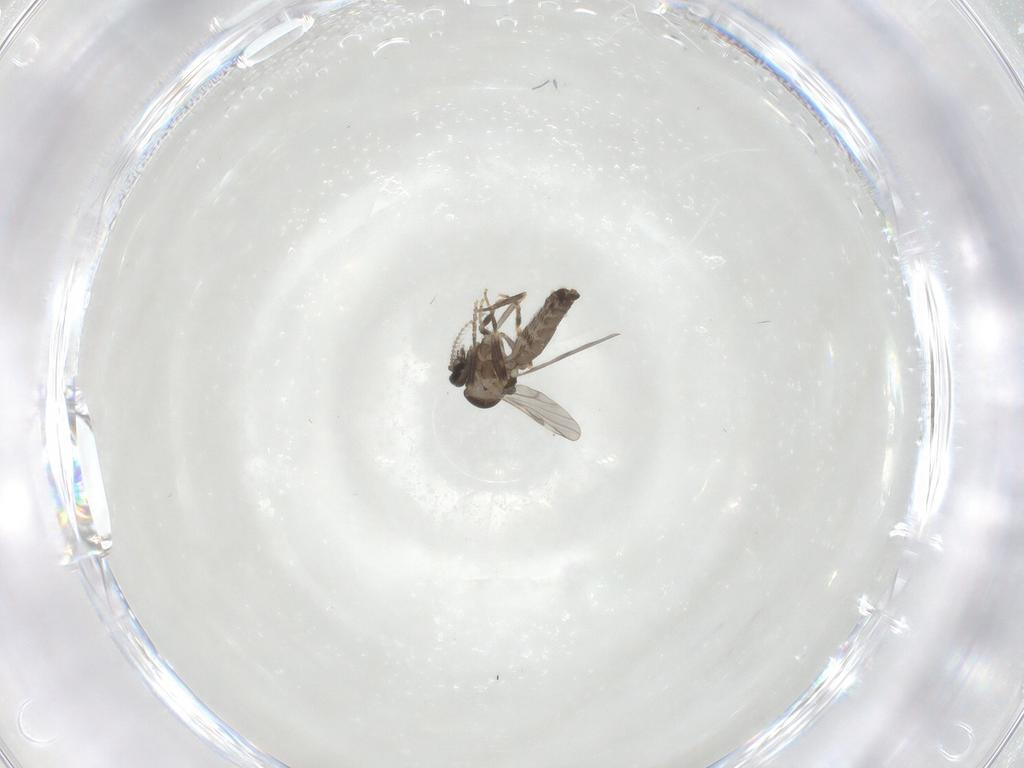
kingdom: Animalia
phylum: Arthropoda
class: Insecta
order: Diptera
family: Ceratopogonidae
